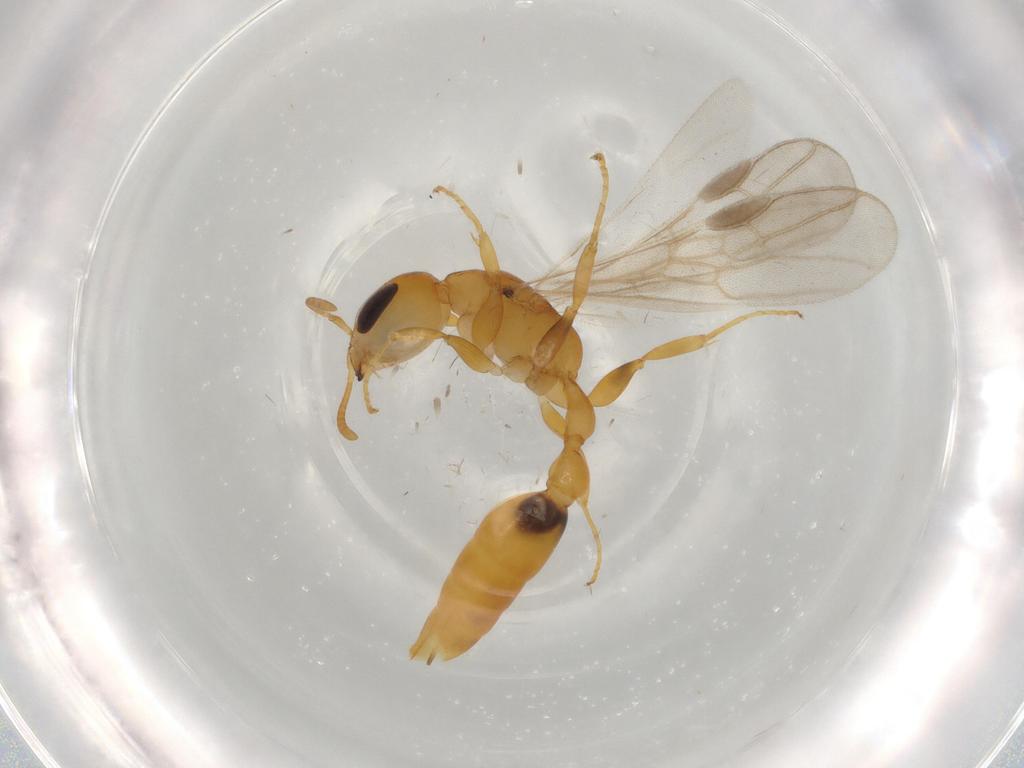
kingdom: Animalia
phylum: Arthropoda
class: Insecta
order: Hymenoptera
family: Formicidae
